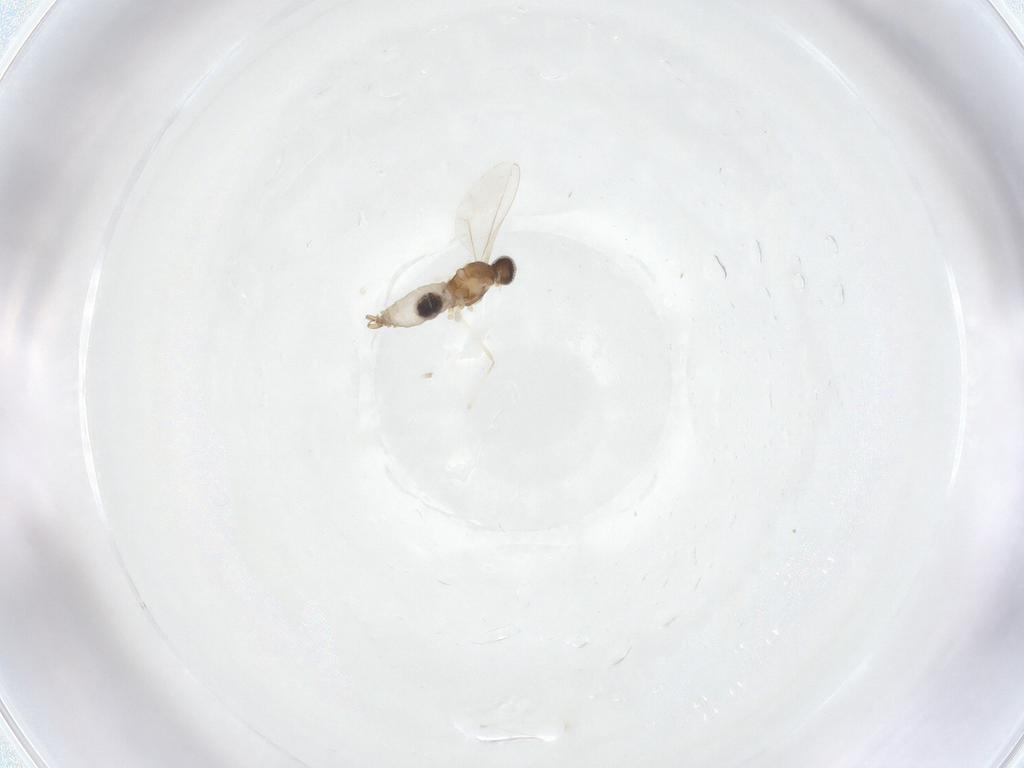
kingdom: Animalia
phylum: Arthropoda
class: Insecta
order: Diptera
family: Cecidomyiidae
